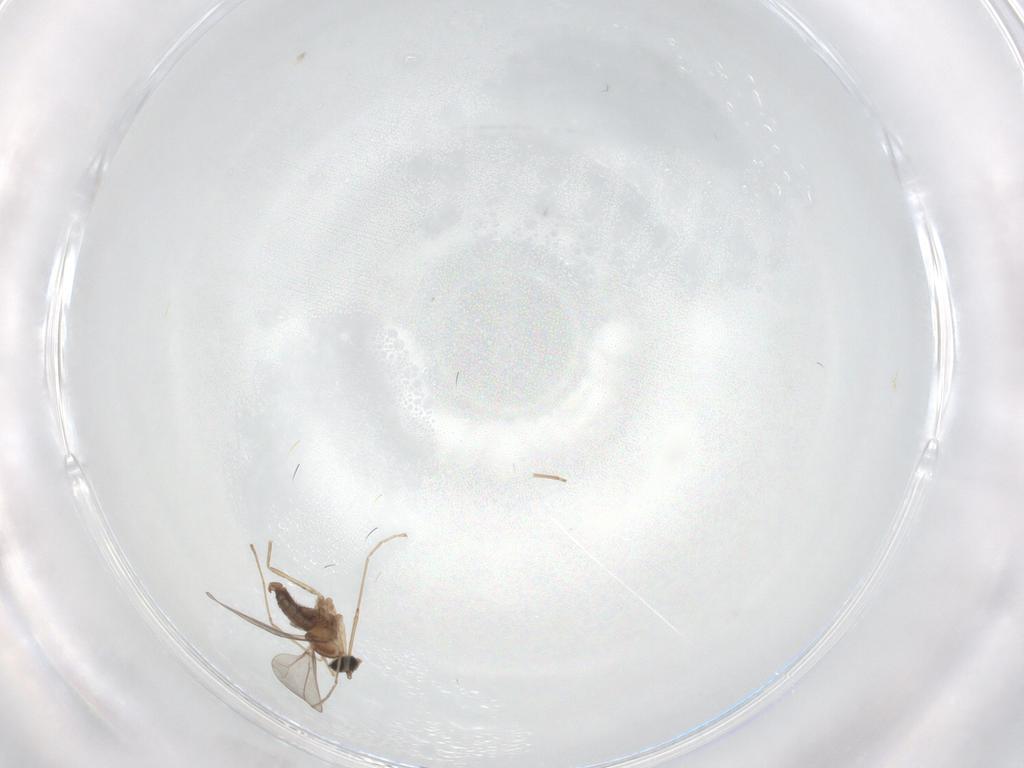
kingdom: Animalia
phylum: Arthropoda
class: Insecta
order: Diptera
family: Cecidomyiidae
